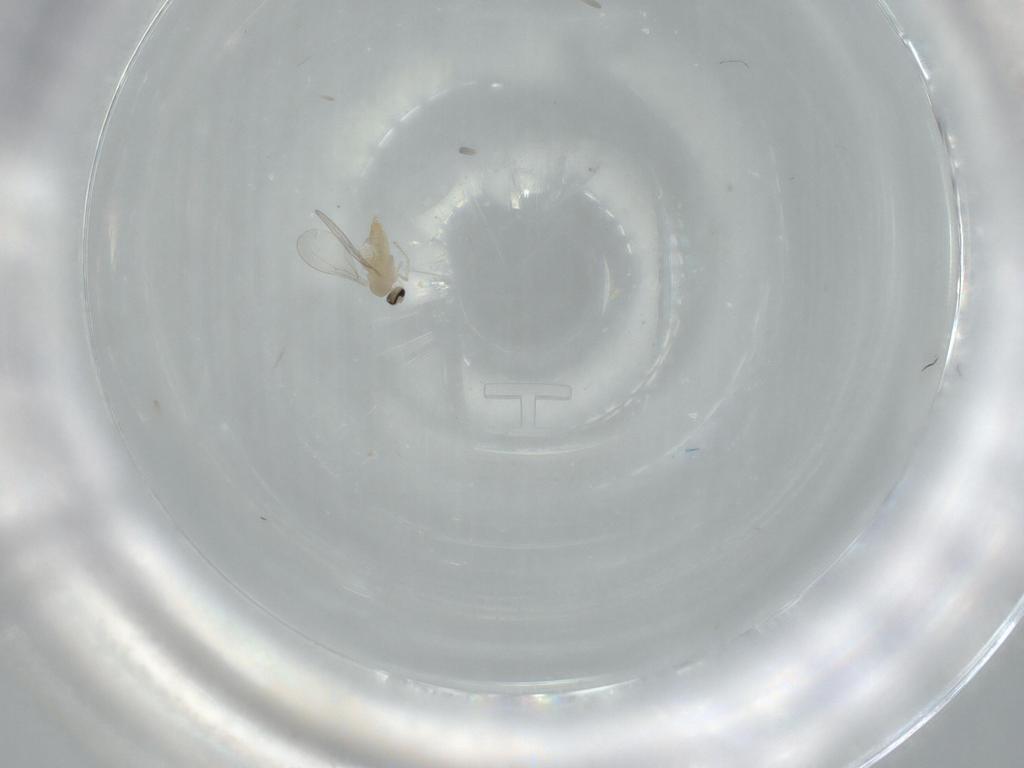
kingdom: Animalia
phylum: Arthropoda
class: Insecta
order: Diptera
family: Cecidomyiidae
